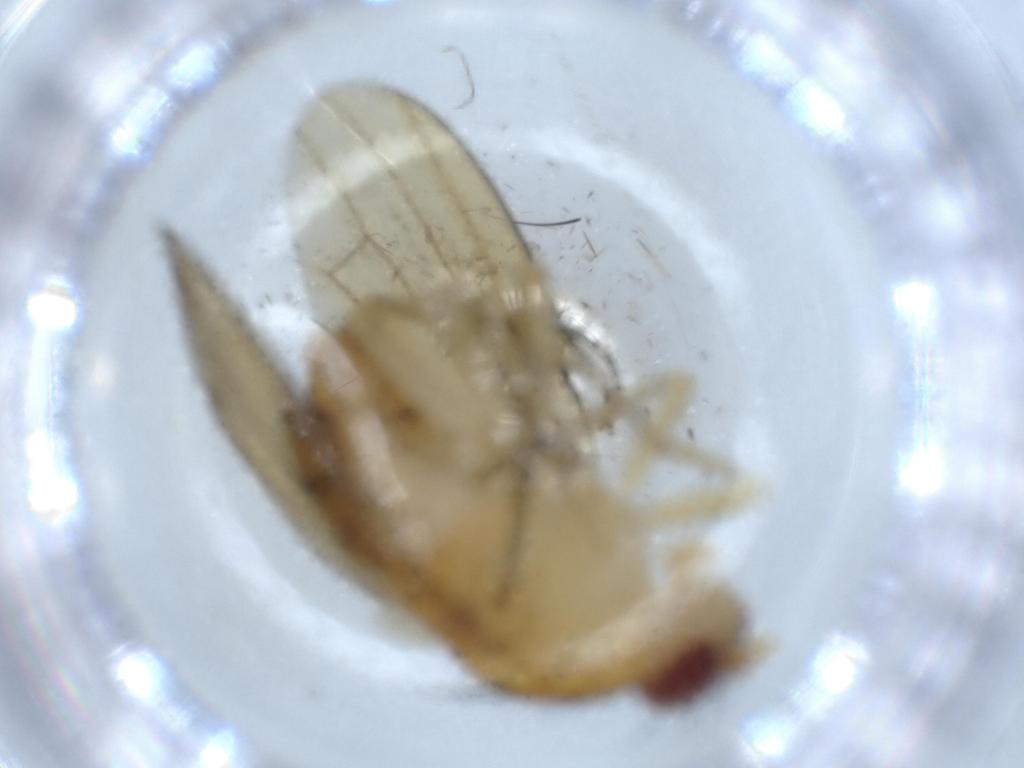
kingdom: Animalia
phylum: Arthropoda
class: Insecta
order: Diptera
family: Chironomidae
